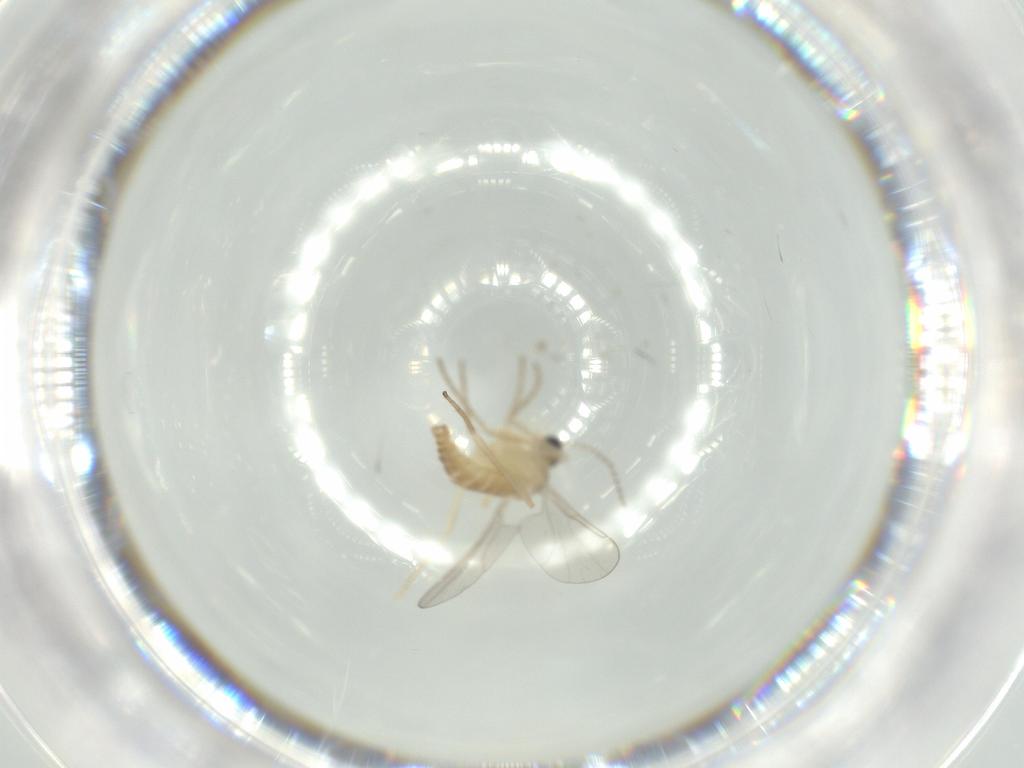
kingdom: Animalia
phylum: Arthropoda
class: Insecta
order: Diptera
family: Cecidomyiidae
